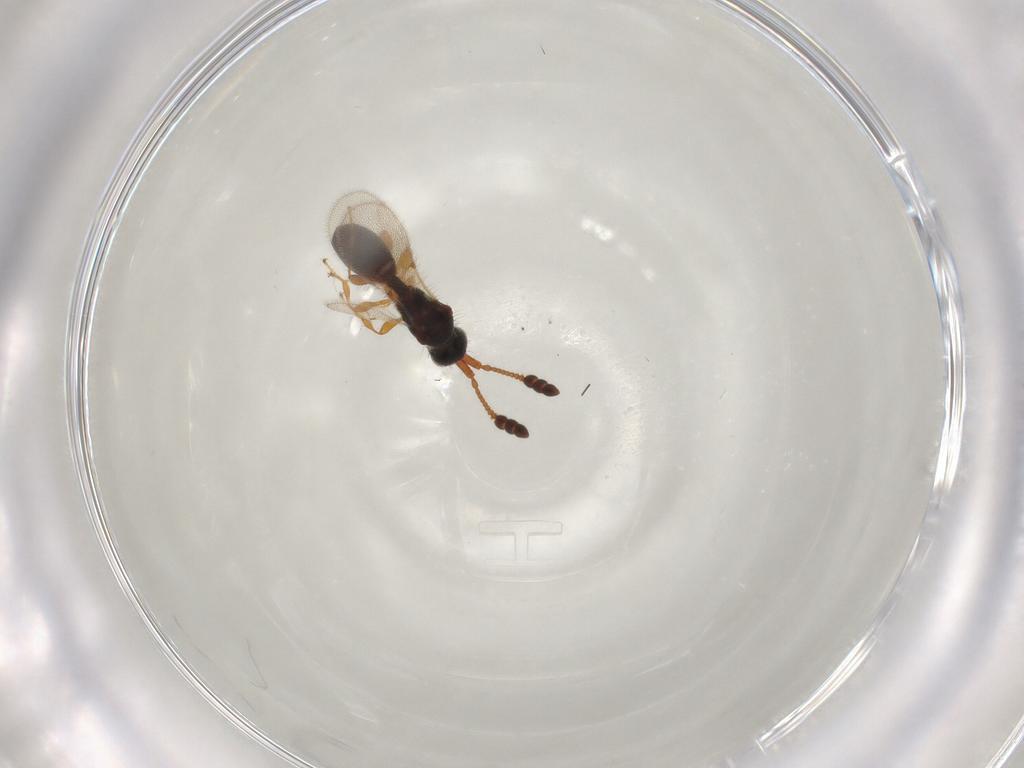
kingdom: Animalia
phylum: Arthropoda
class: Insecta
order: Hymenoptera
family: Diapriidae
